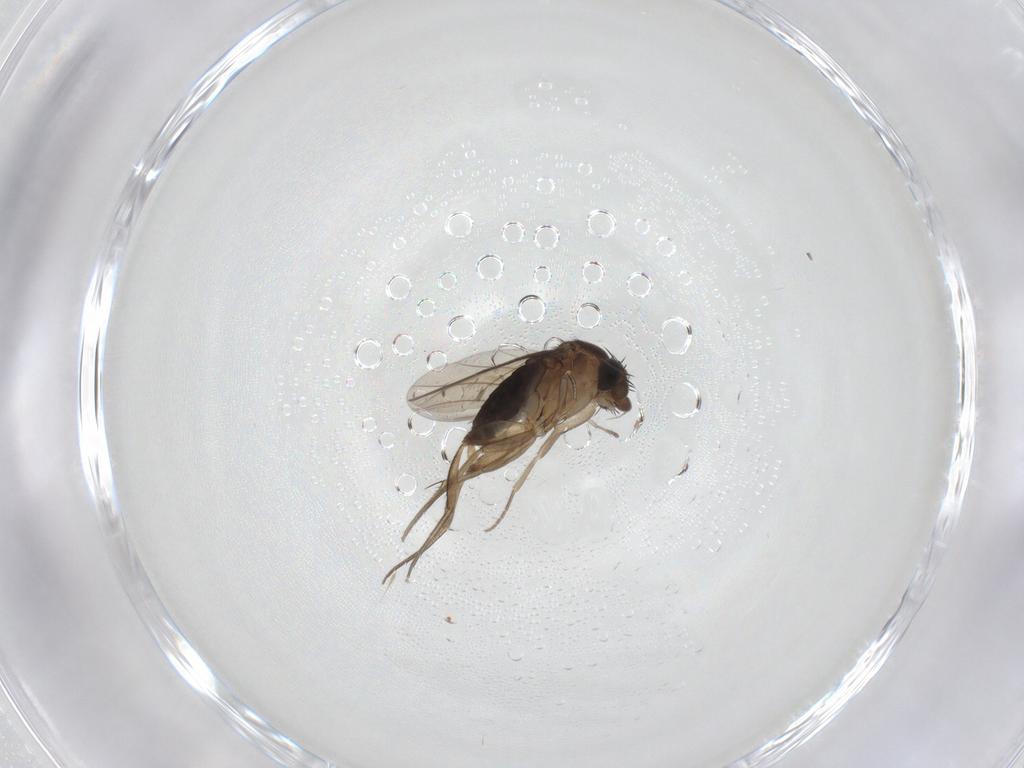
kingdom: Animalia
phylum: Arthropoda
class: Insecta
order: Diptera
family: Phoridae
